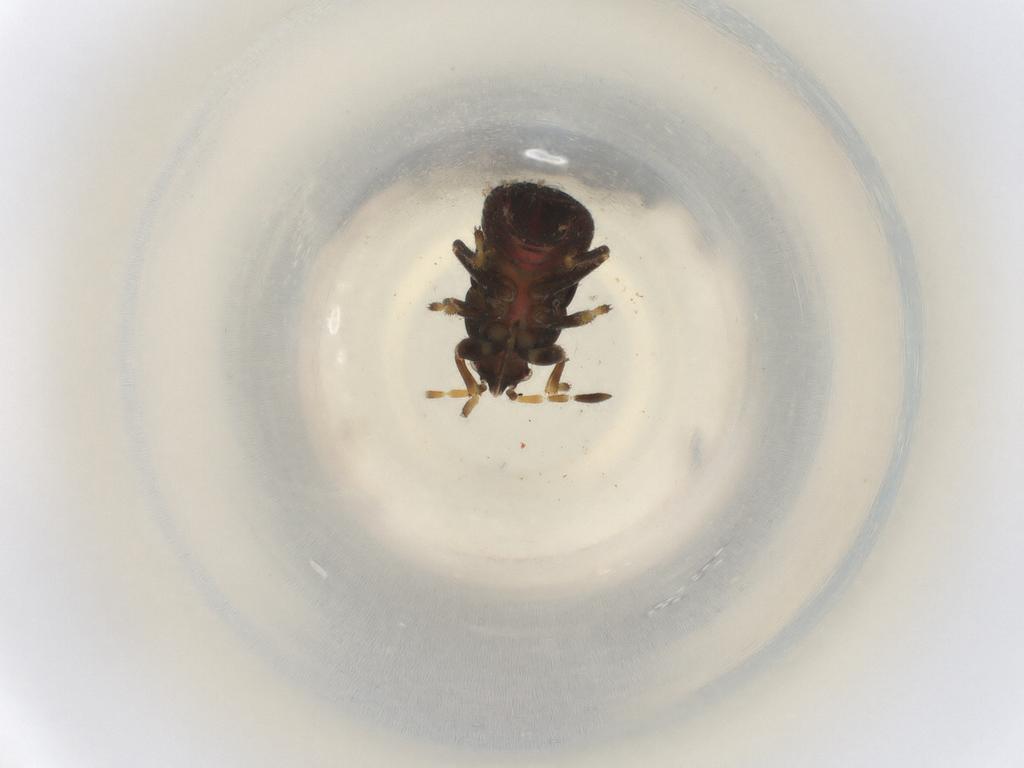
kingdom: Animalia
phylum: Arthropoda
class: Insecta
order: Coleoptera
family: Chrysomelidae
